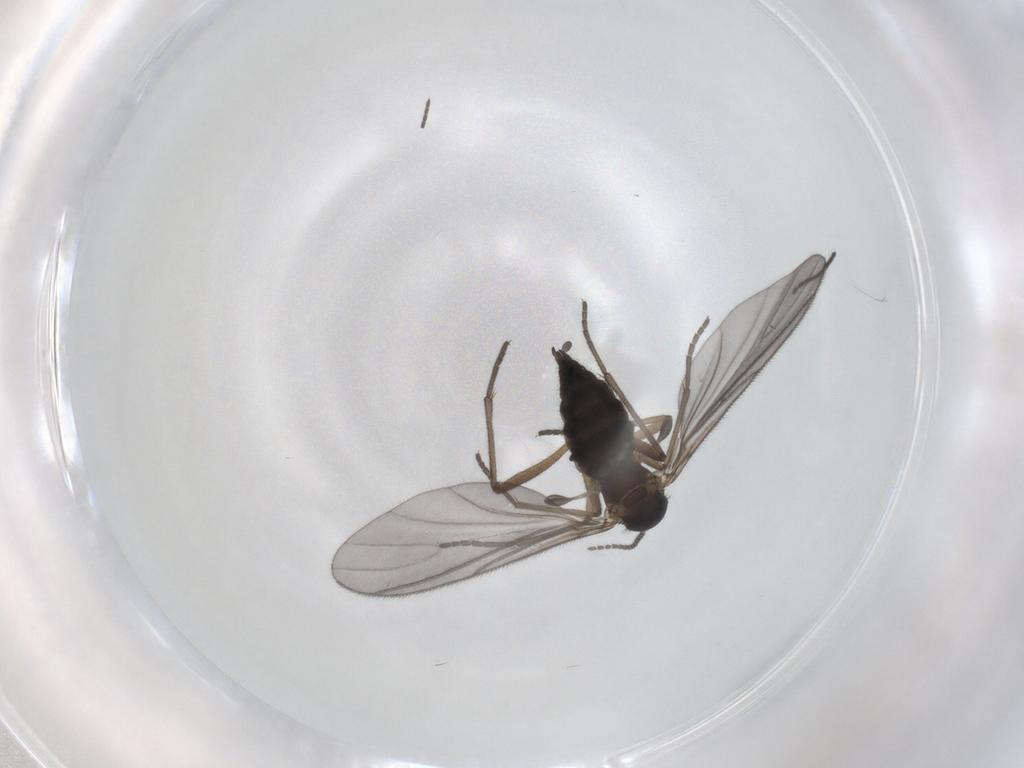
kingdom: Animalia
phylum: Arthropoda
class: Insecta
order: Diptera
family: Sciaridae
